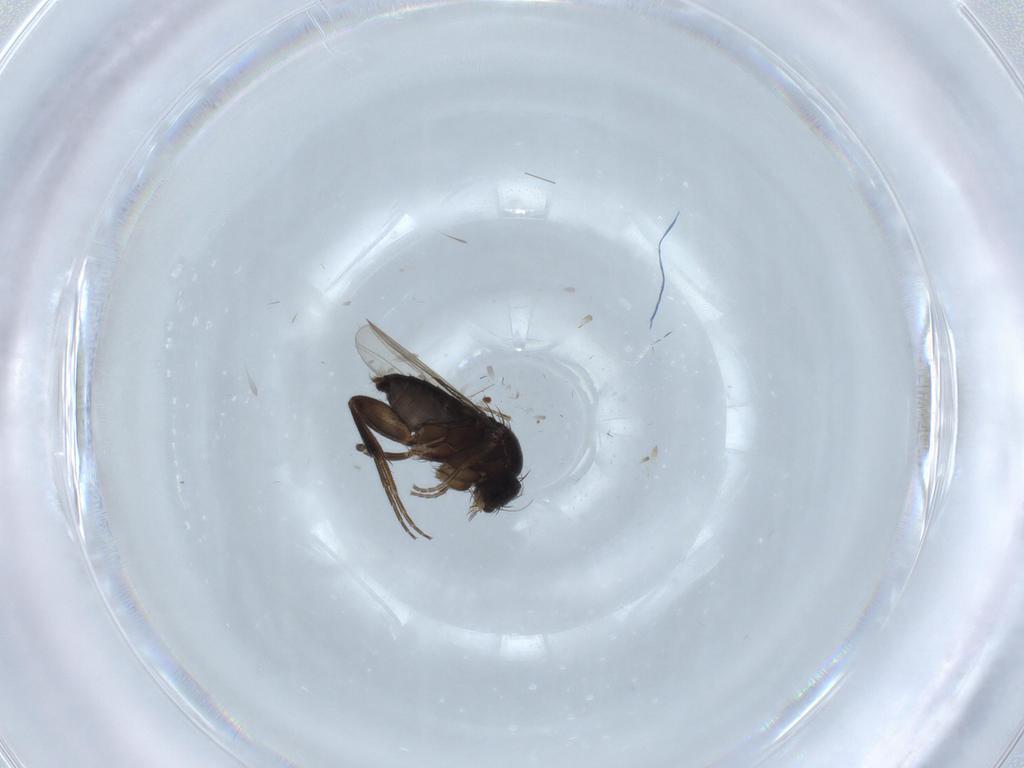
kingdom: Animalia
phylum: Arthropoda
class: Insecta
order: Diptera
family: Phoridae
